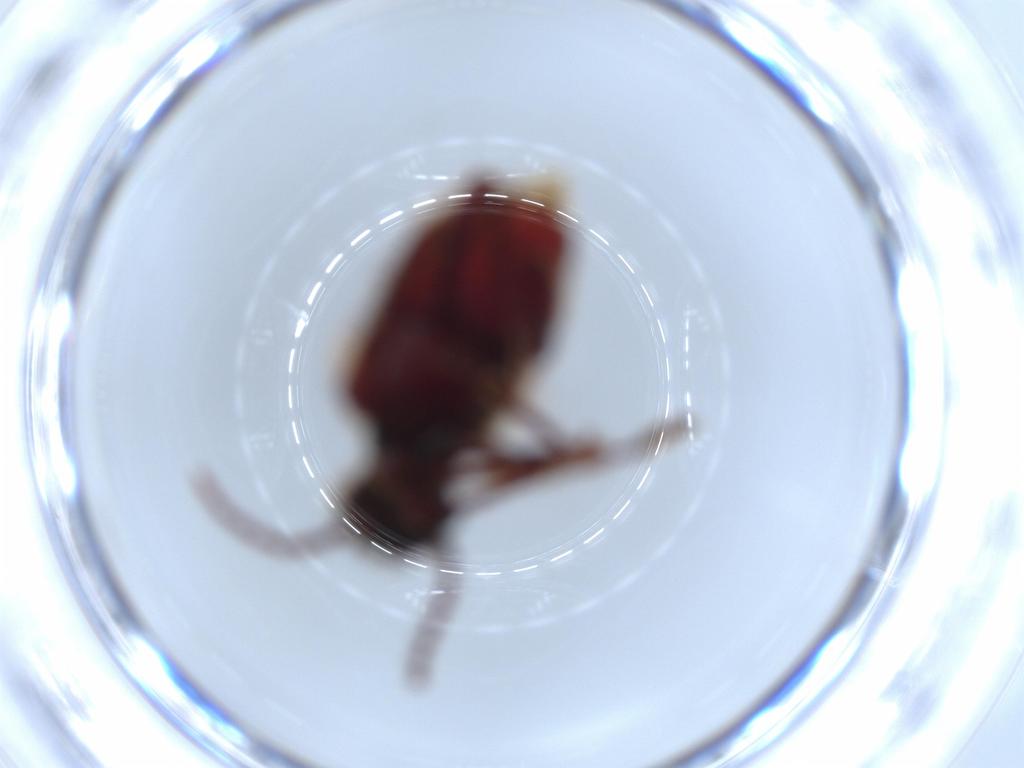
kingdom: Animalia
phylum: Arthropoda
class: Insecta
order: Coleoptera
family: Ptinidae
